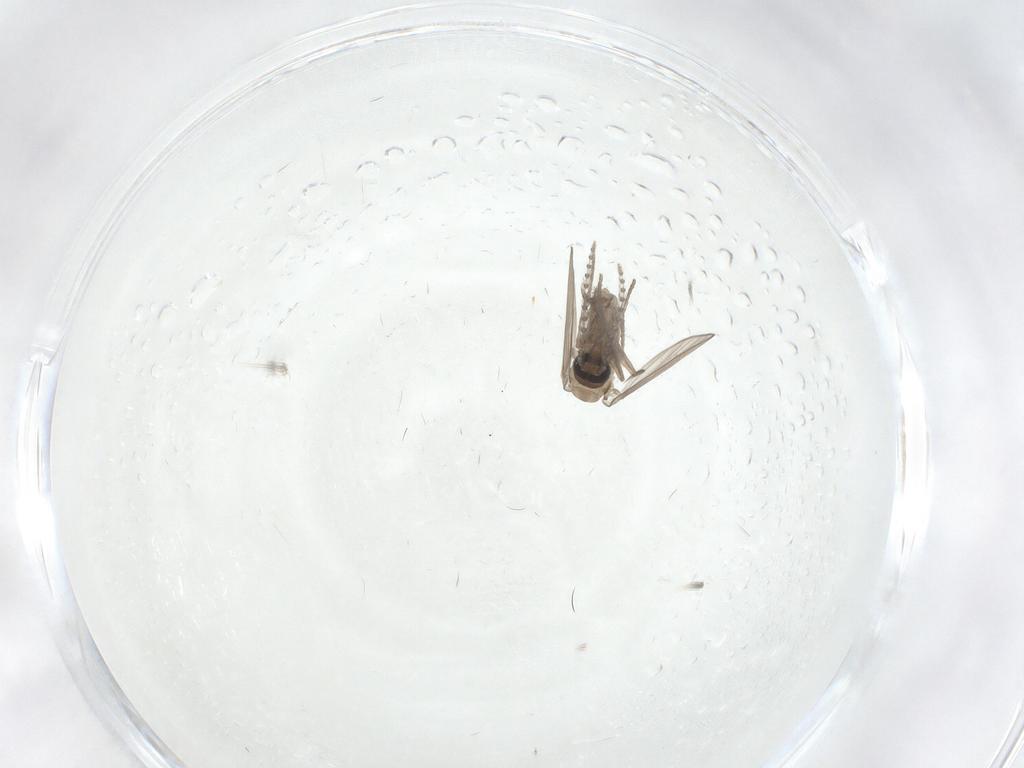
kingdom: Animalia
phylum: Arthropoda
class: Insecta
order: Diptera
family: Psychodidae
